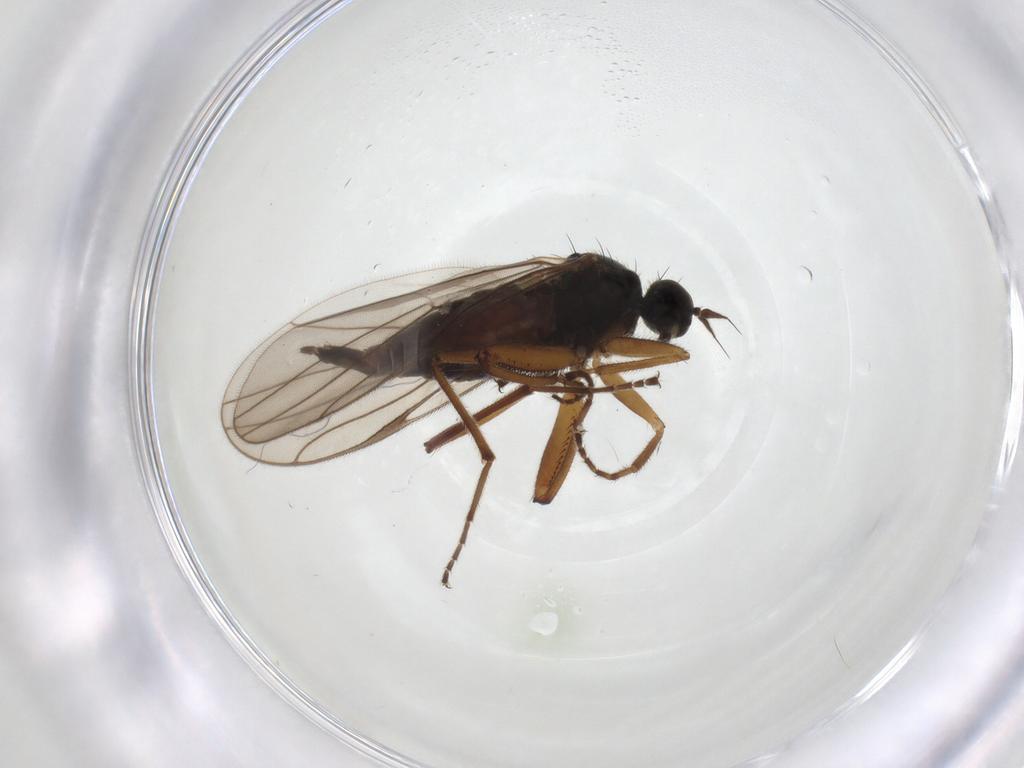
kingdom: Animalia
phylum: Arthropoda
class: Insecta
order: Diptera
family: Hybotidae
